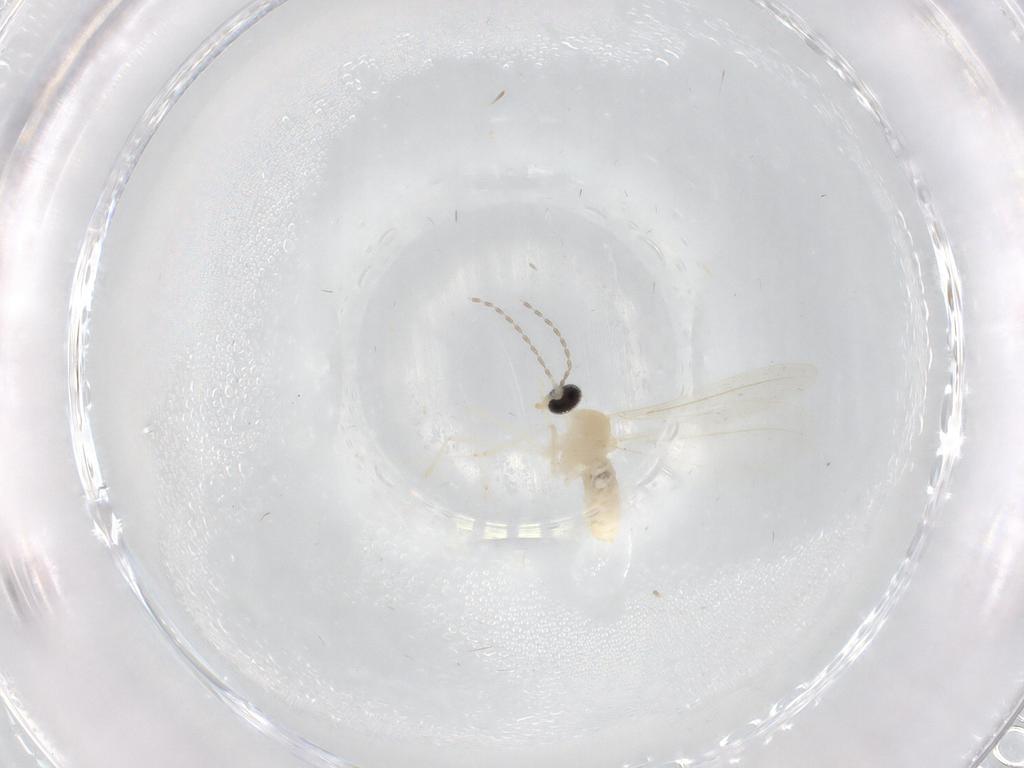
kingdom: Animalia
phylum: Arthropoda
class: Insecta
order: Diptera
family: Cecidomyiidae
